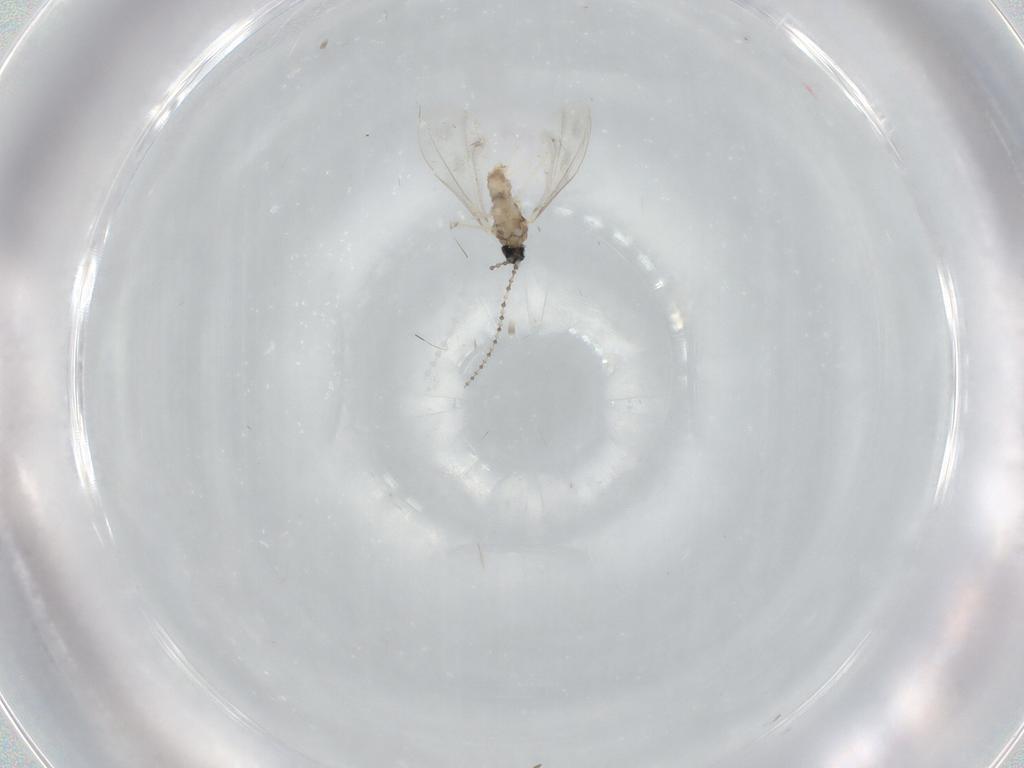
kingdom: Animalia
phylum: Arthropoda
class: Insecta
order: Diptera
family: Cecidomyiidae
